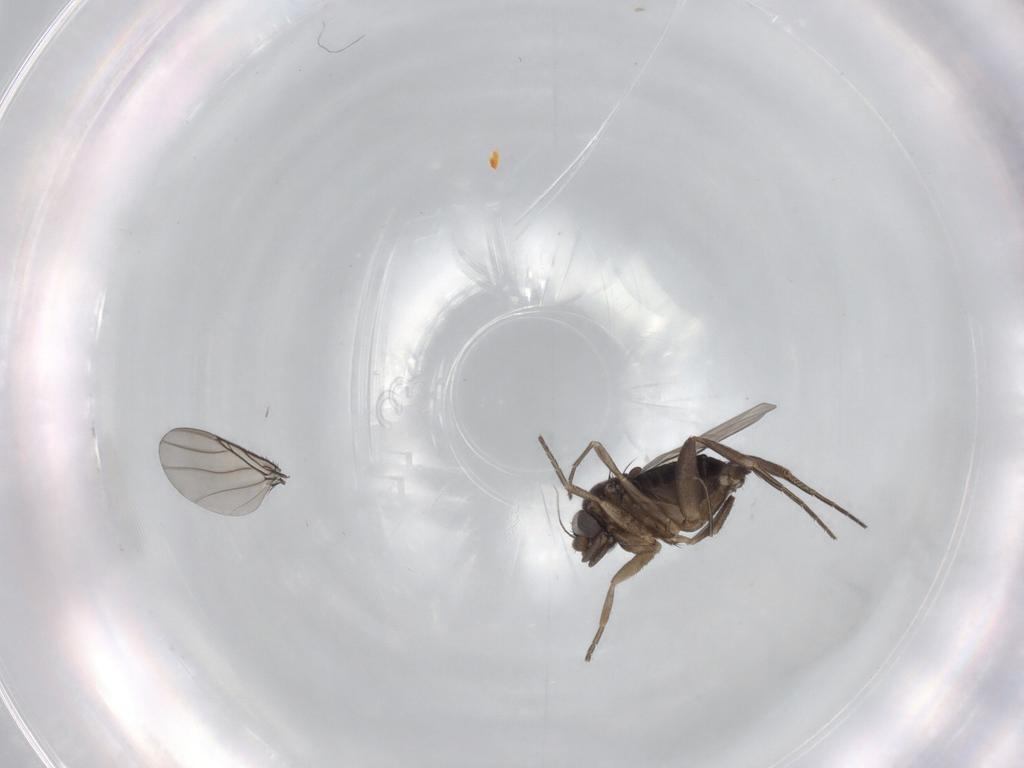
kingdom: Animalia
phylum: Arthropoda
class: Insecta
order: Diptera
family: Phoridae
